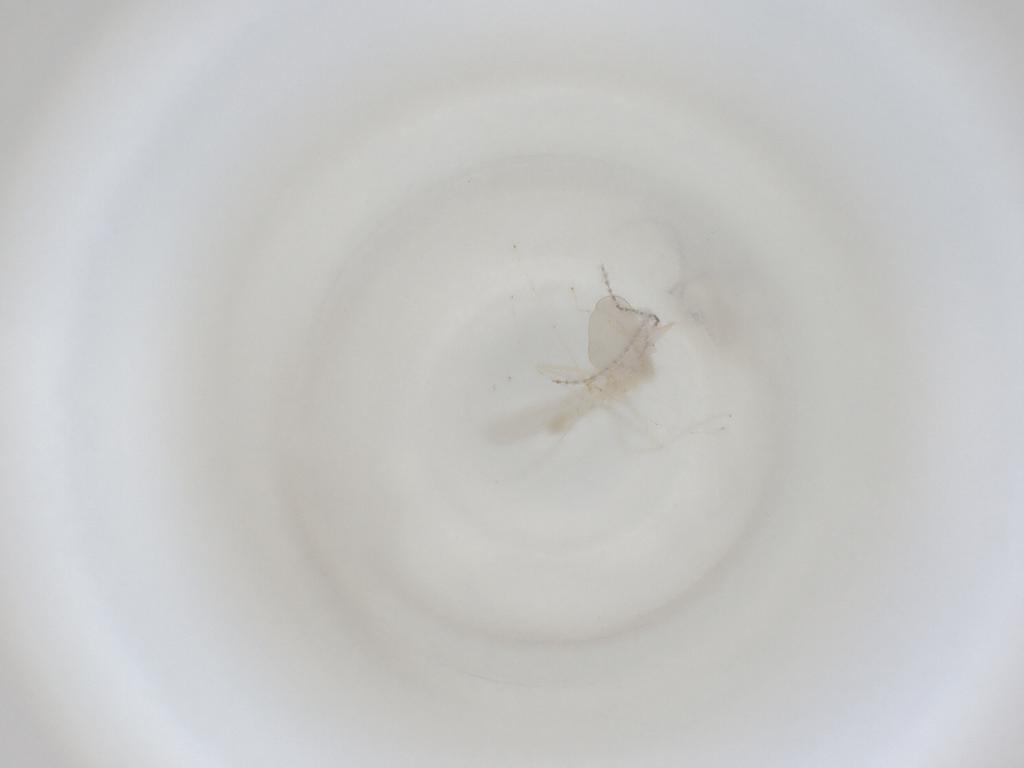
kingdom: Animalia
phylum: Arthropoda
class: Insecta
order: Diptera
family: Cecidomyiidae
